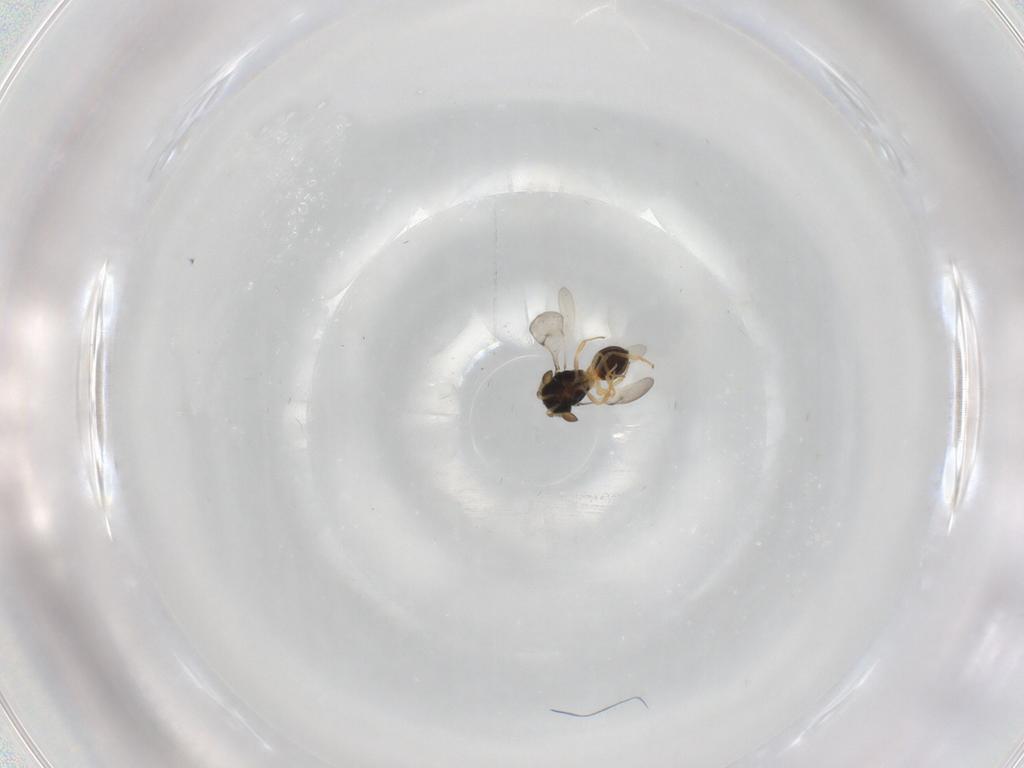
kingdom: Animalia
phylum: Arthropoda
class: Insecta
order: Hymenoptera
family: Scelionidae
